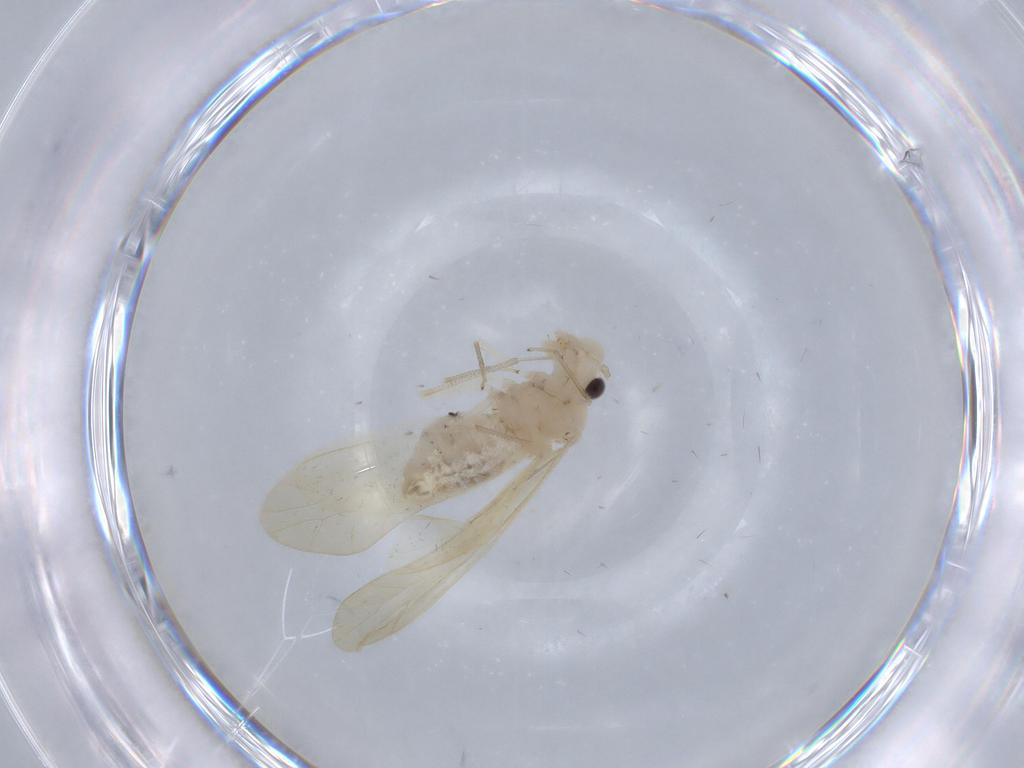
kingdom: Animalia
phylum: Arthropoda
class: Insecta
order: Psocodea
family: Caeciliusidae
